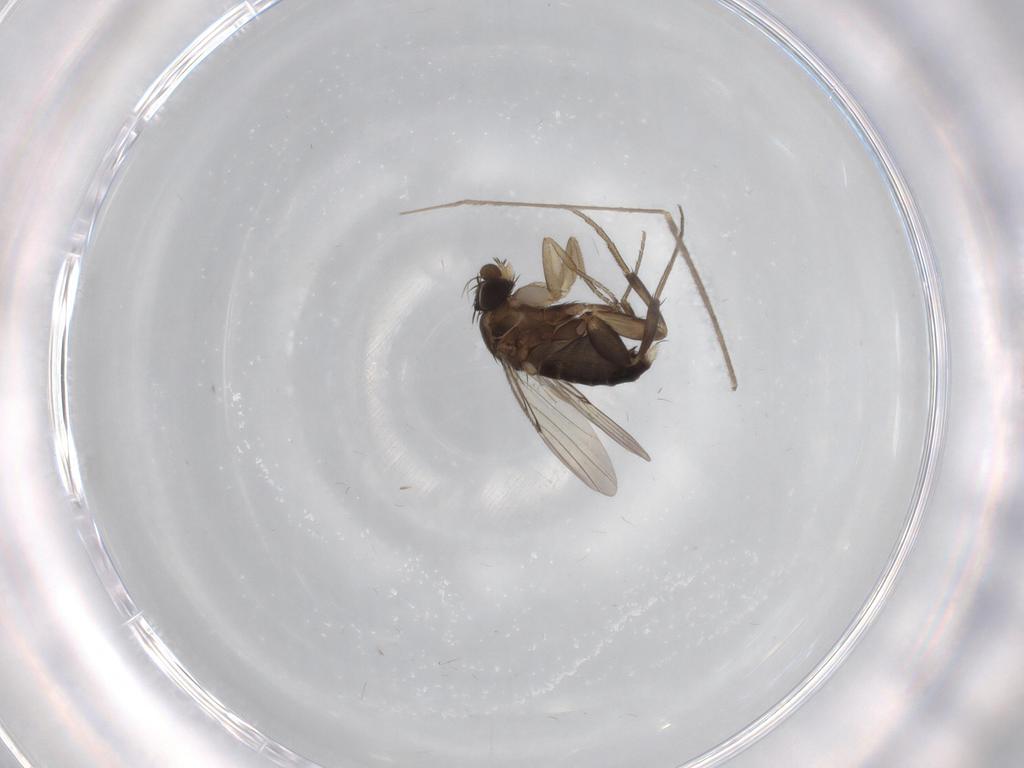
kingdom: Animalia
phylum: Arthropoda
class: Insecta
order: Diptera
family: Phoridae
